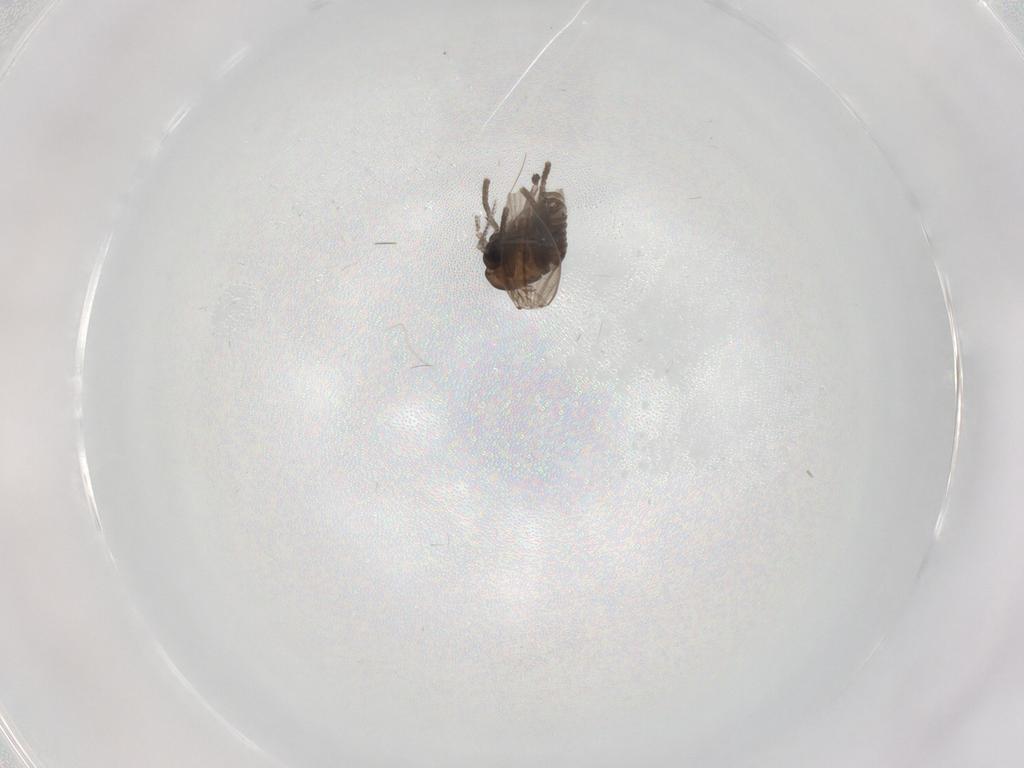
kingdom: Animalia
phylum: Arthropoda
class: Insecta
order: Diptera
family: Psychodidae
